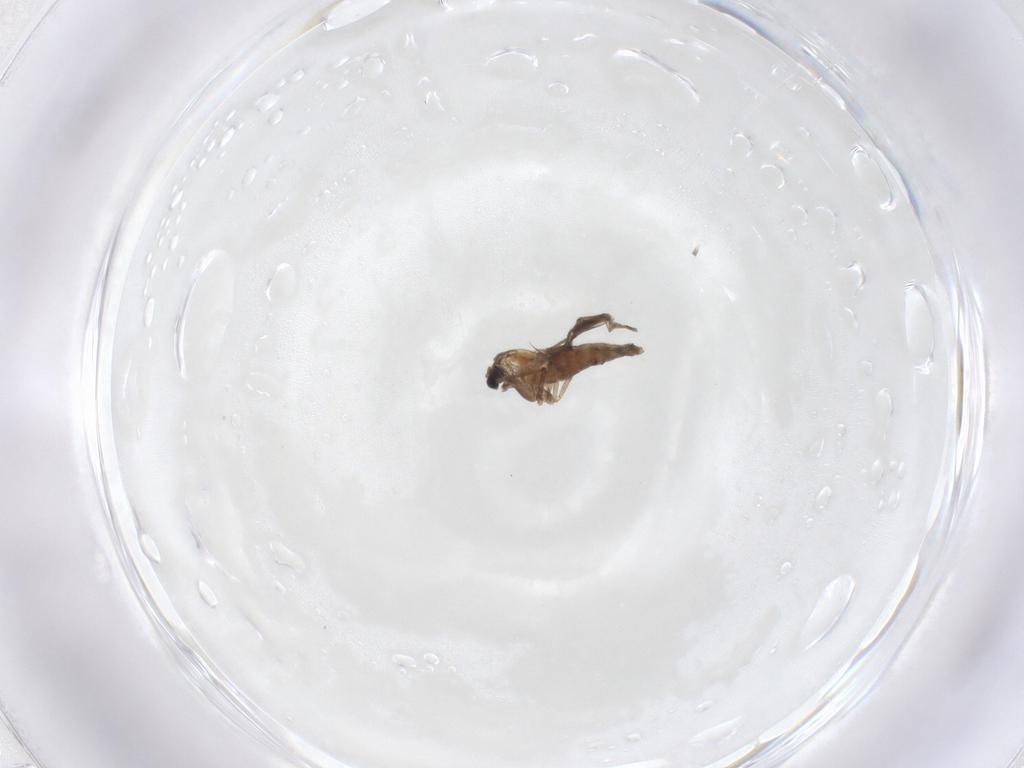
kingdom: Animalia
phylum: Arthropoda
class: Insecta
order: Diptera
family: Chironomidae
